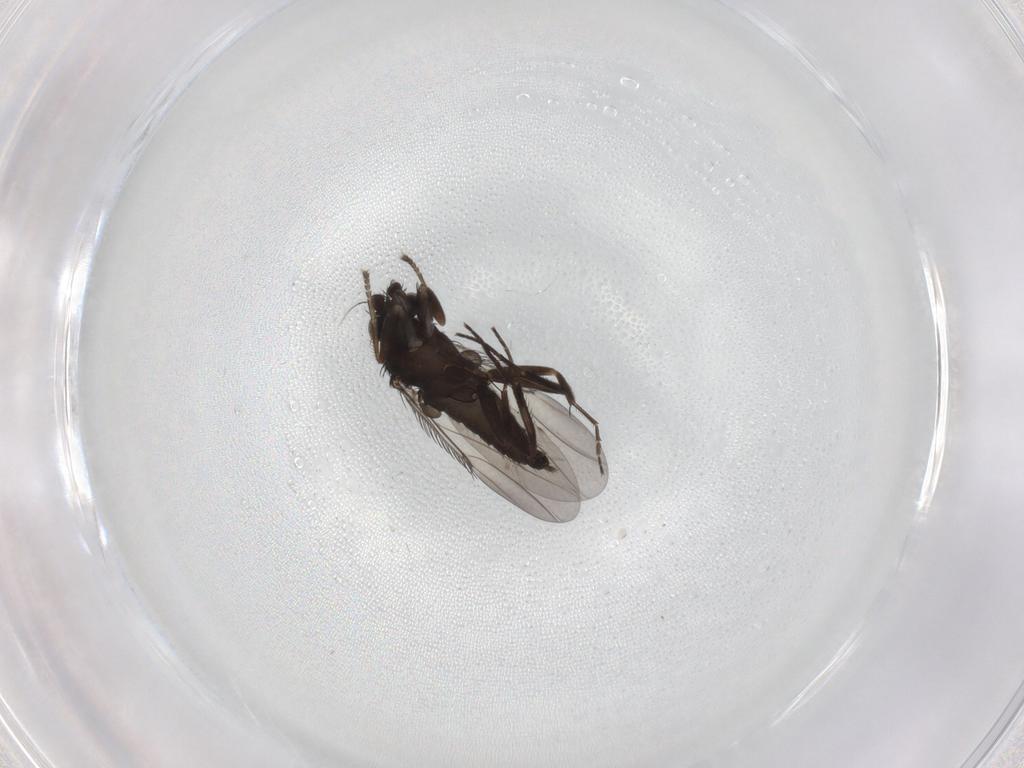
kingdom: Animalia
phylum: Arthropoda
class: Insecta
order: Diptera
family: Phoridae
